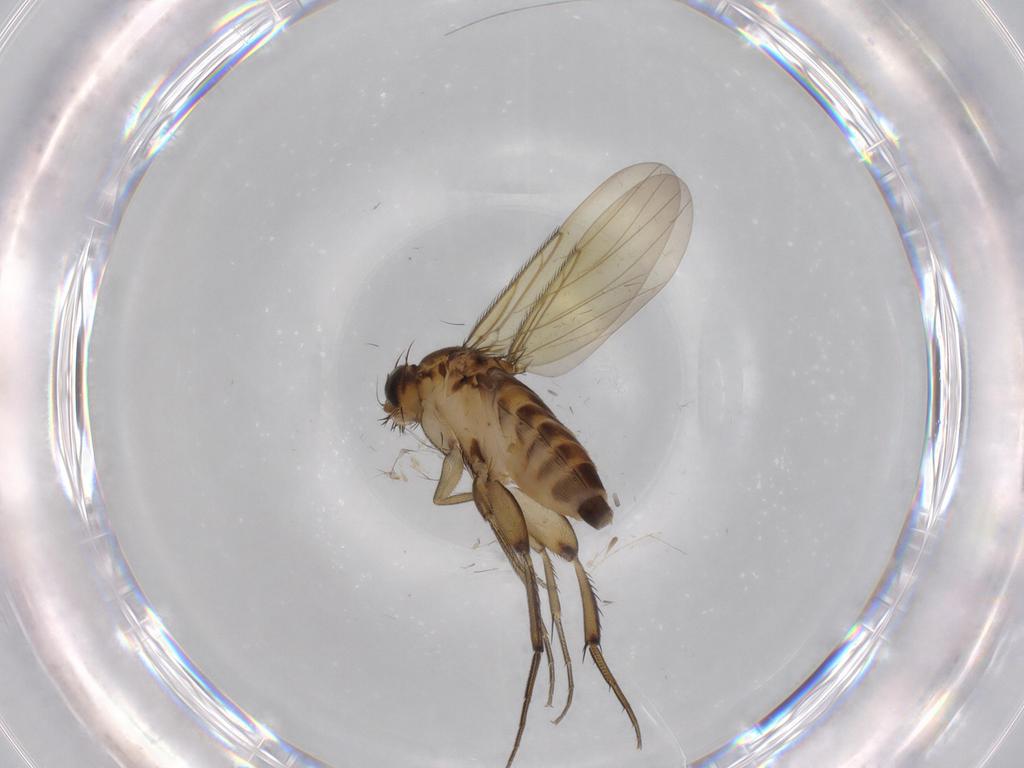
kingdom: Animalia
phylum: Arthropoda
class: Insecta
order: Diptera
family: Phoridae
